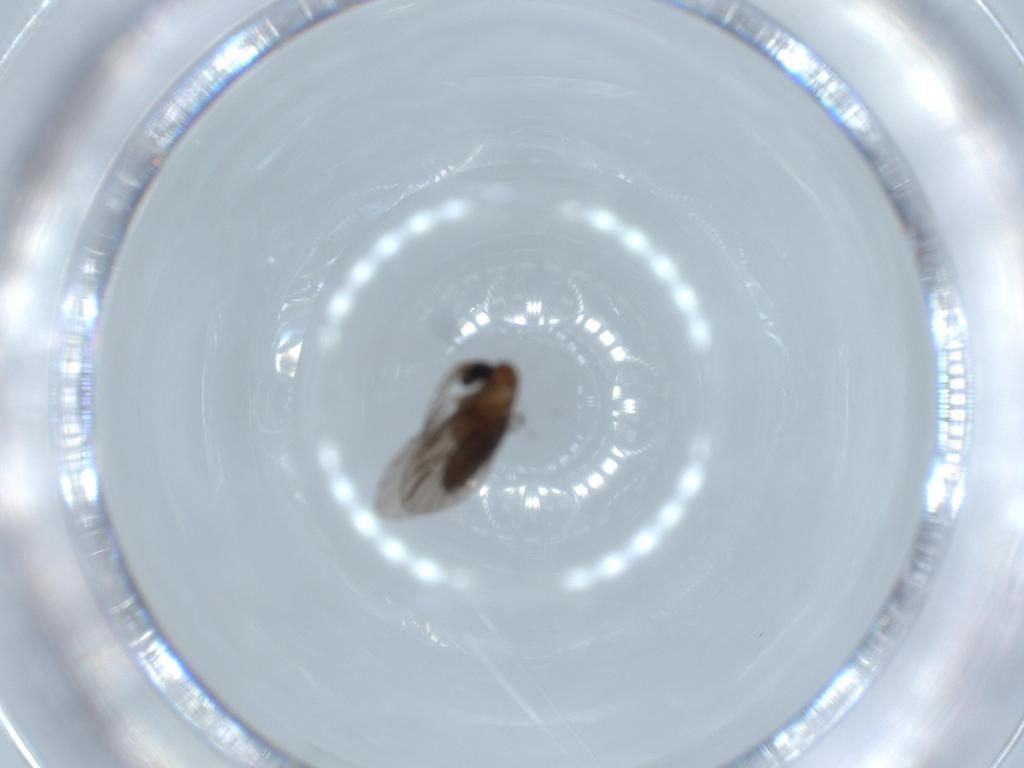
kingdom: Animalia
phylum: Arthropoda
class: Insecta
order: Diptera
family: Psychodidae
